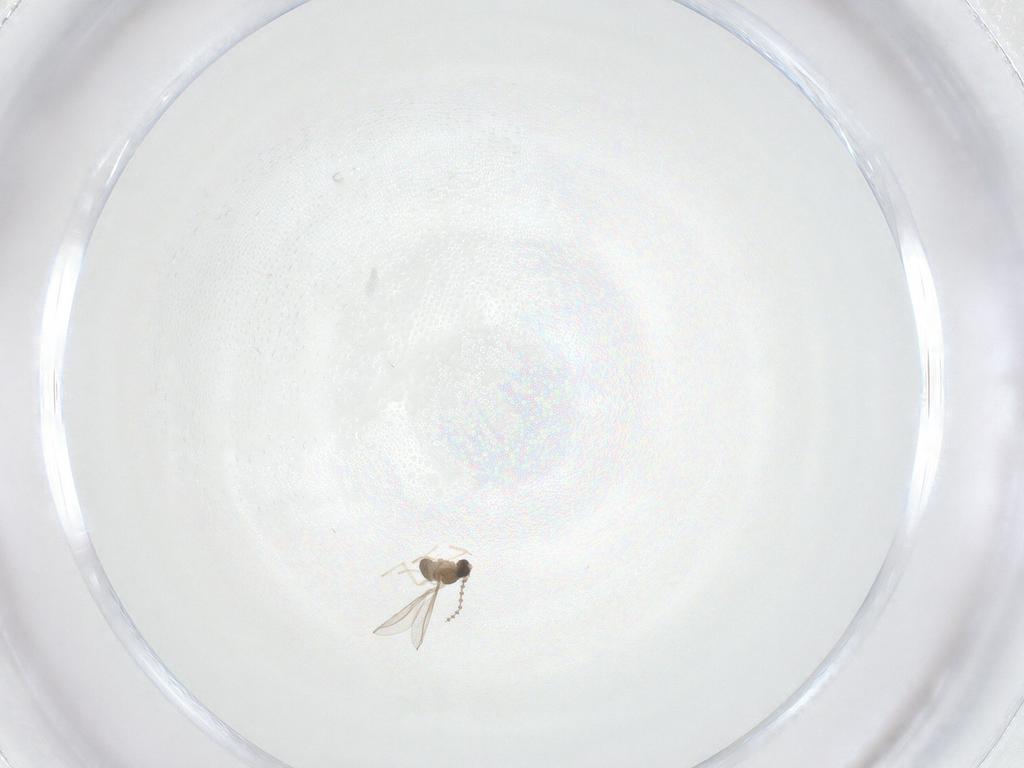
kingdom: Animalia
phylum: Arthropoda
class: Insecta
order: Diptera
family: Cecidomyiidae
